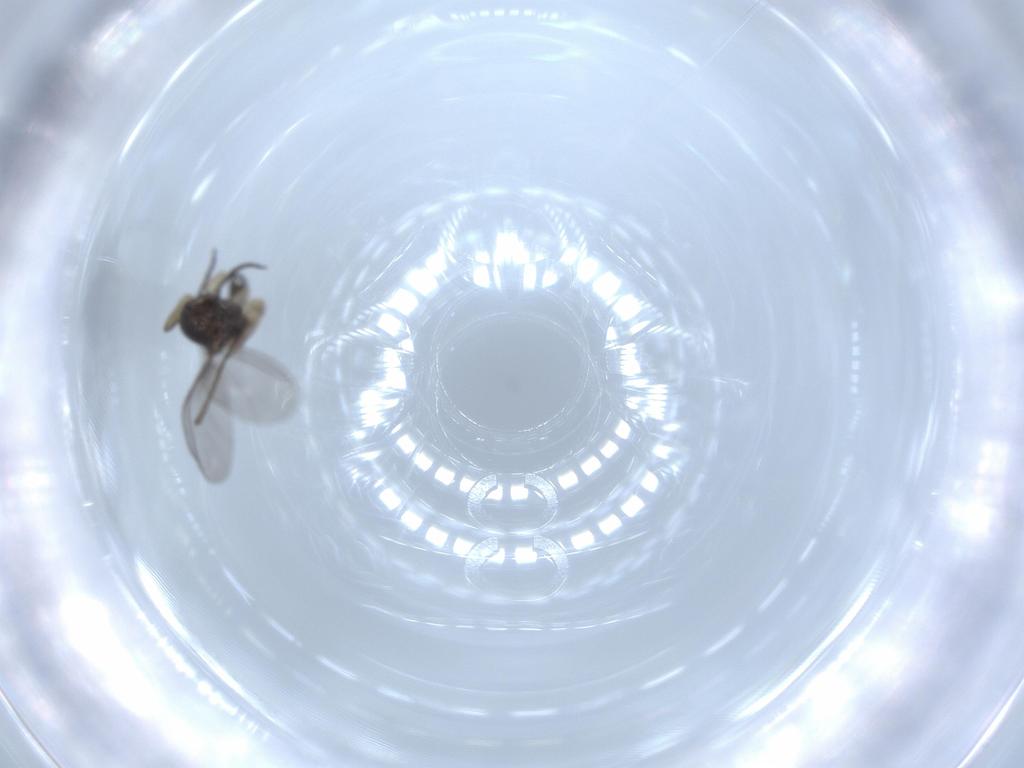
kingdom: Animalia
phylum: Arthropoda
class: Insecta
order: Diptera
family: Sciaridae
